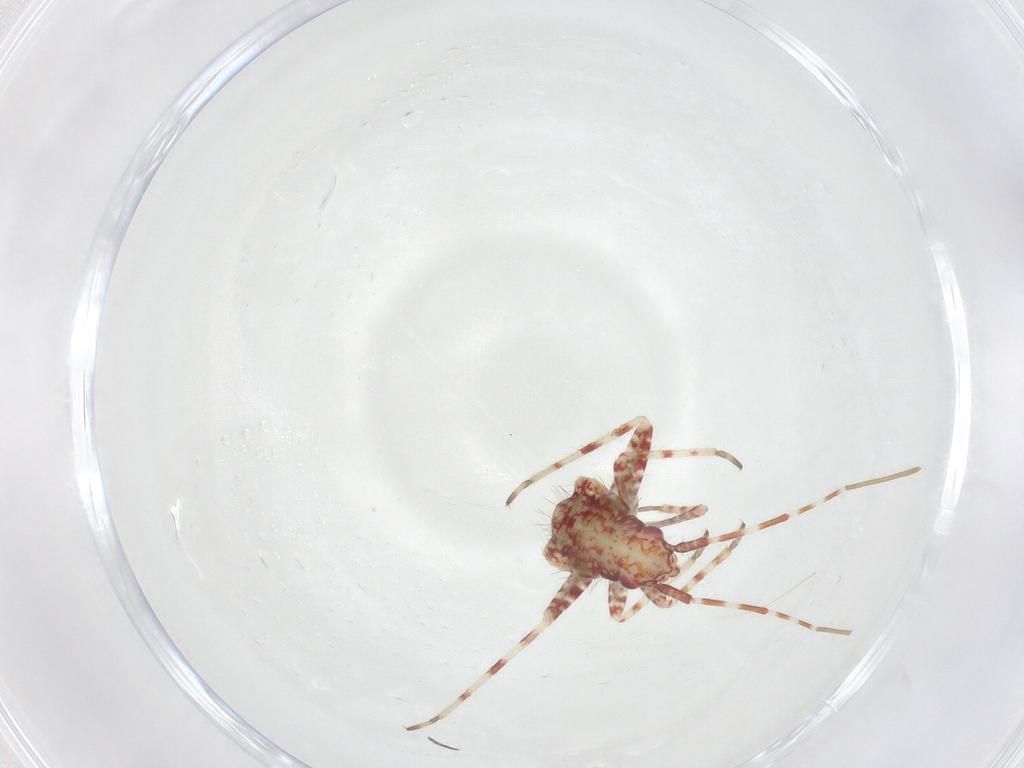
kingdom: Animalia
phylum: Arthropoda
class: Insecta
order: Hemiptera
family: Miridae
